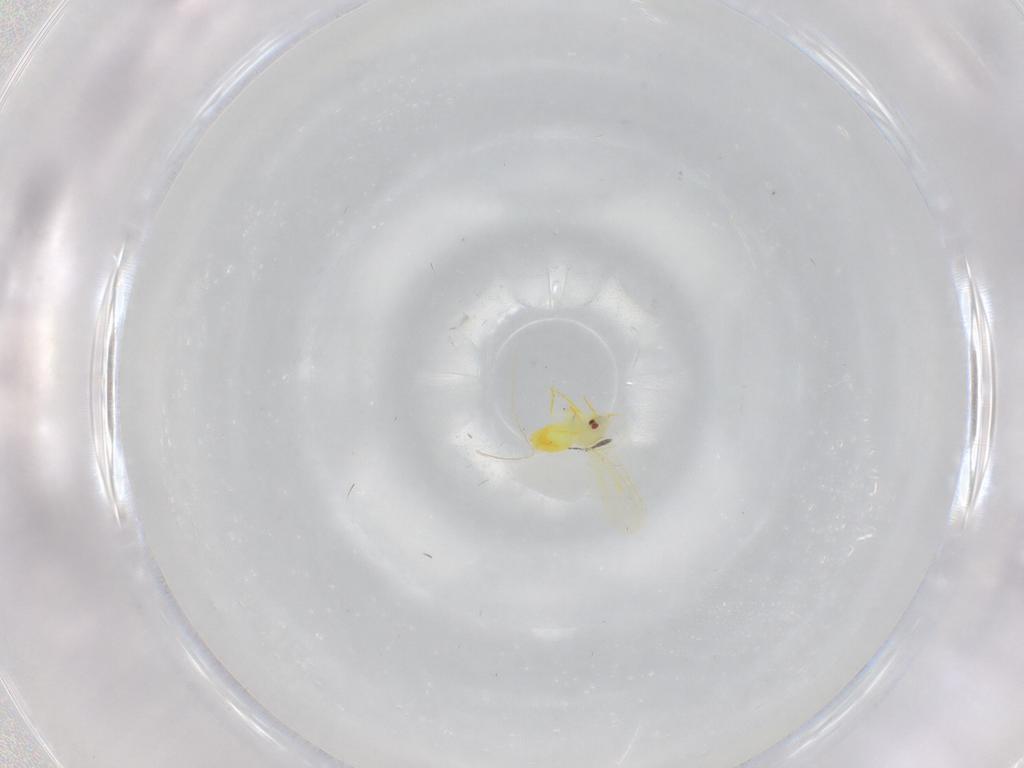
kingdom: Animalia
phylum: Arthropoda
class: Insecta
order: Hemiptera
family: Aleyrodidae
